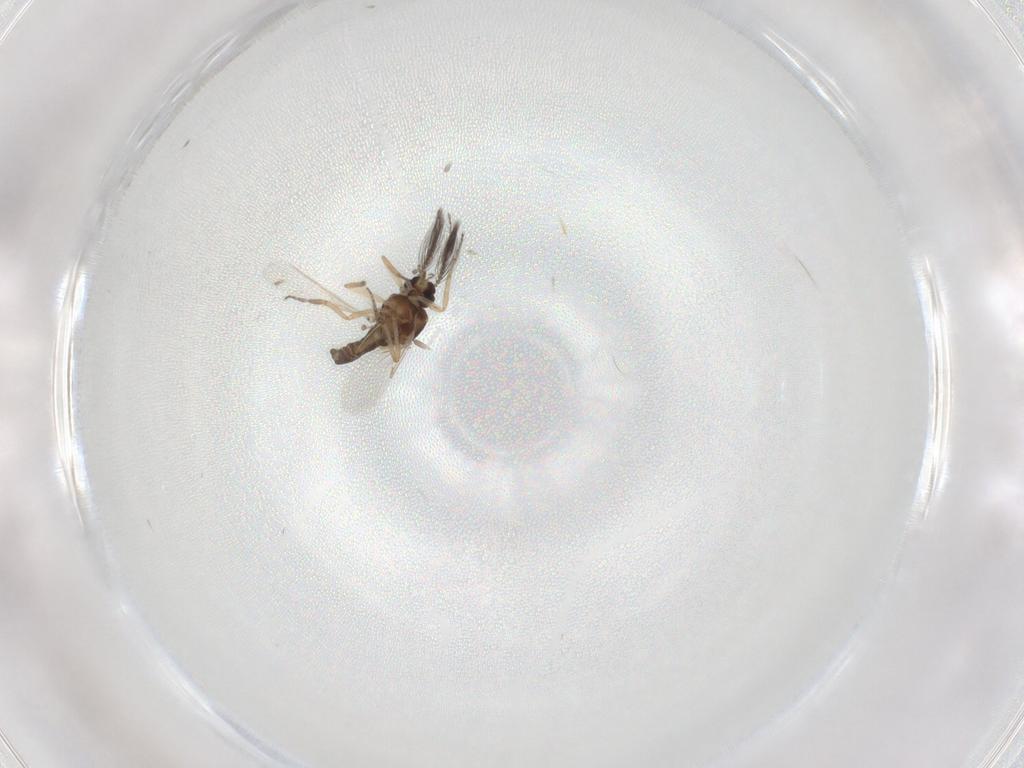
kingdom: Animalia
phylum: Arthropoda
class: Insecta
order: Diptera
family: Ceratopogonidae
